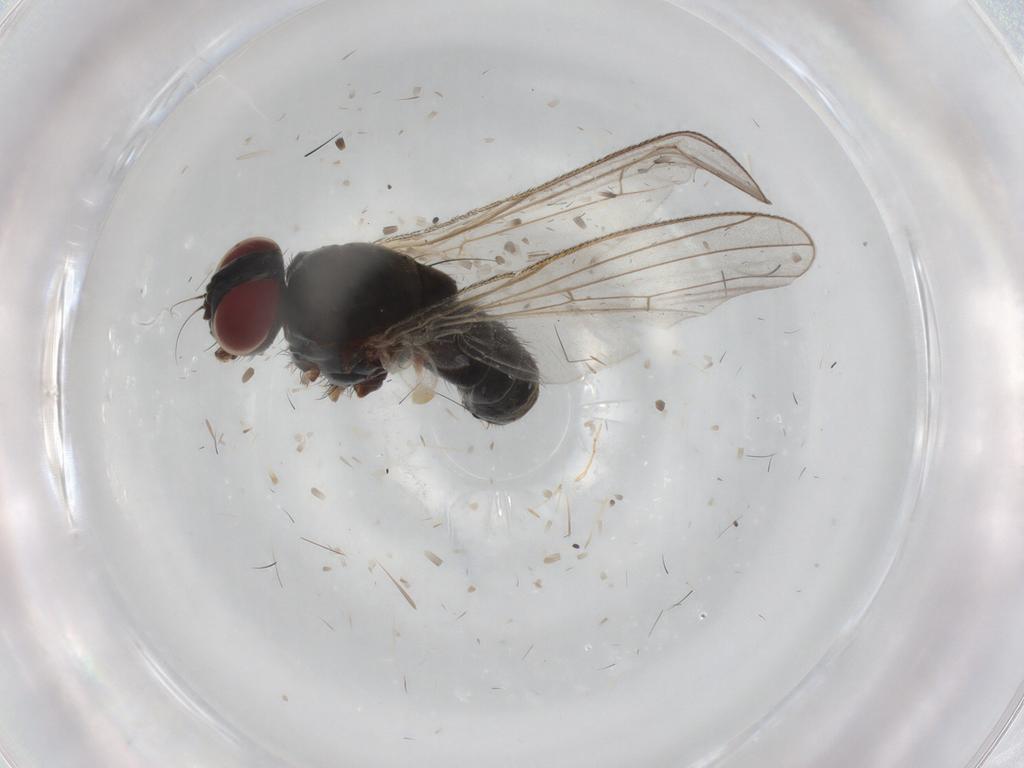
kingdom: Animalia
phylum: Arthropoda
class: Insecta
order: Diptera
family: Sciaridae
